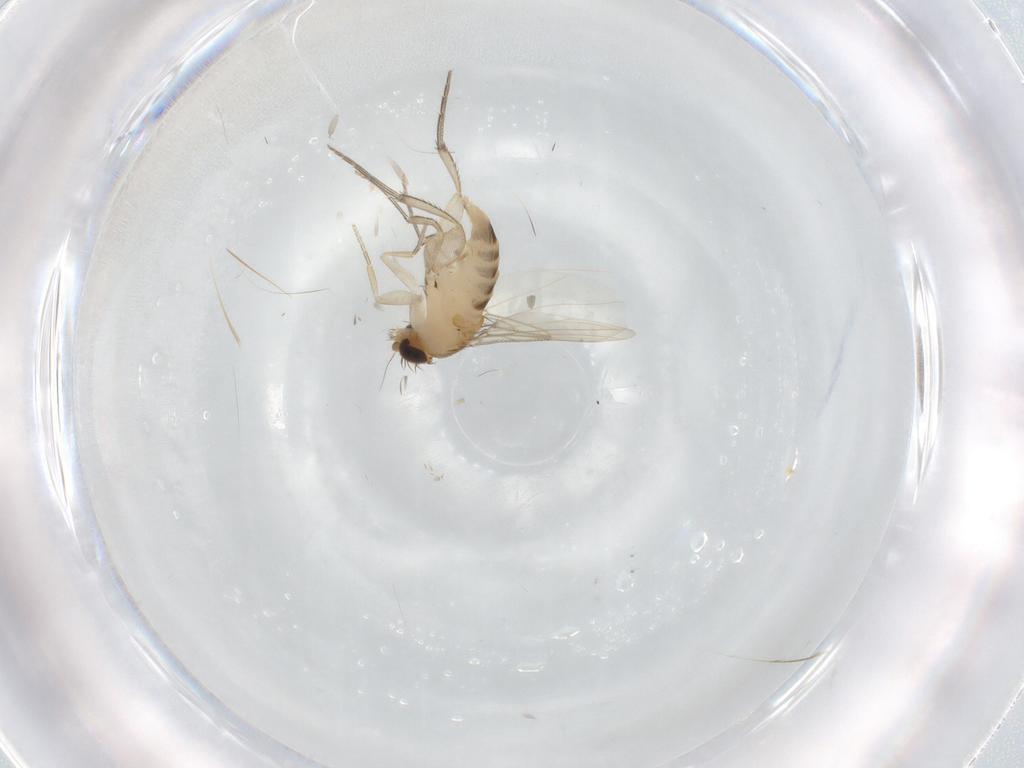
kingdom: Animalia
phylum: Arthropoda
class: Insecta
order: Diptera
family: Phoridae
